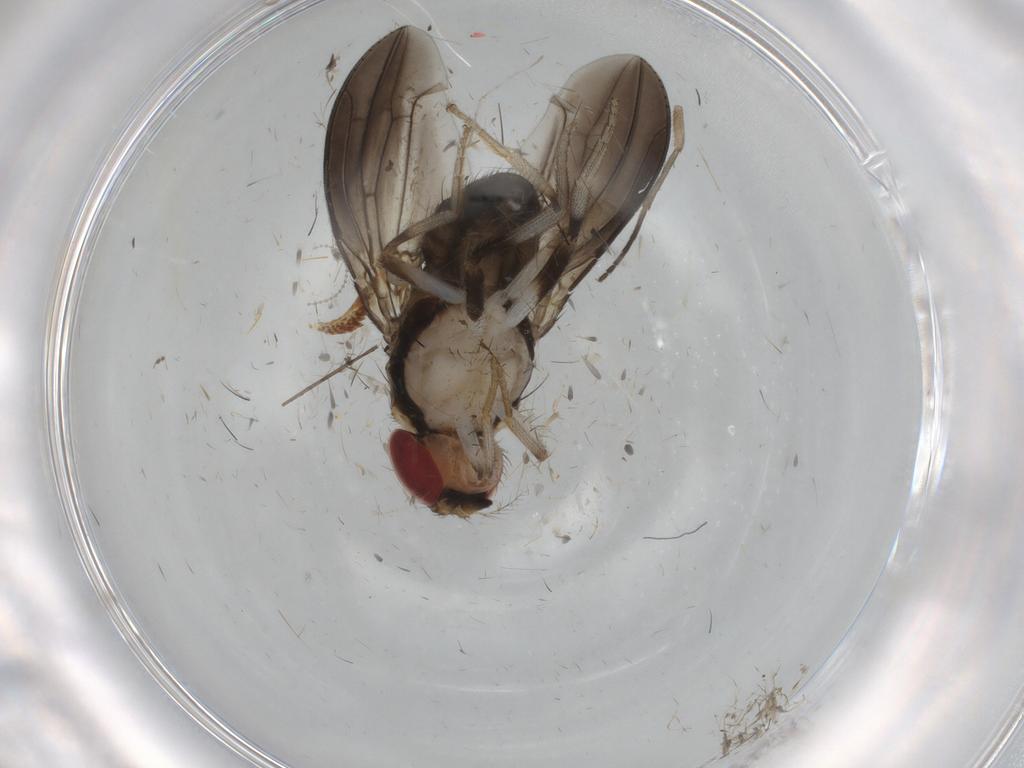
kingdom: Animalia
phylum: Arthropoda
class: Insecta
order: Diptera
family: Drosophilidae
